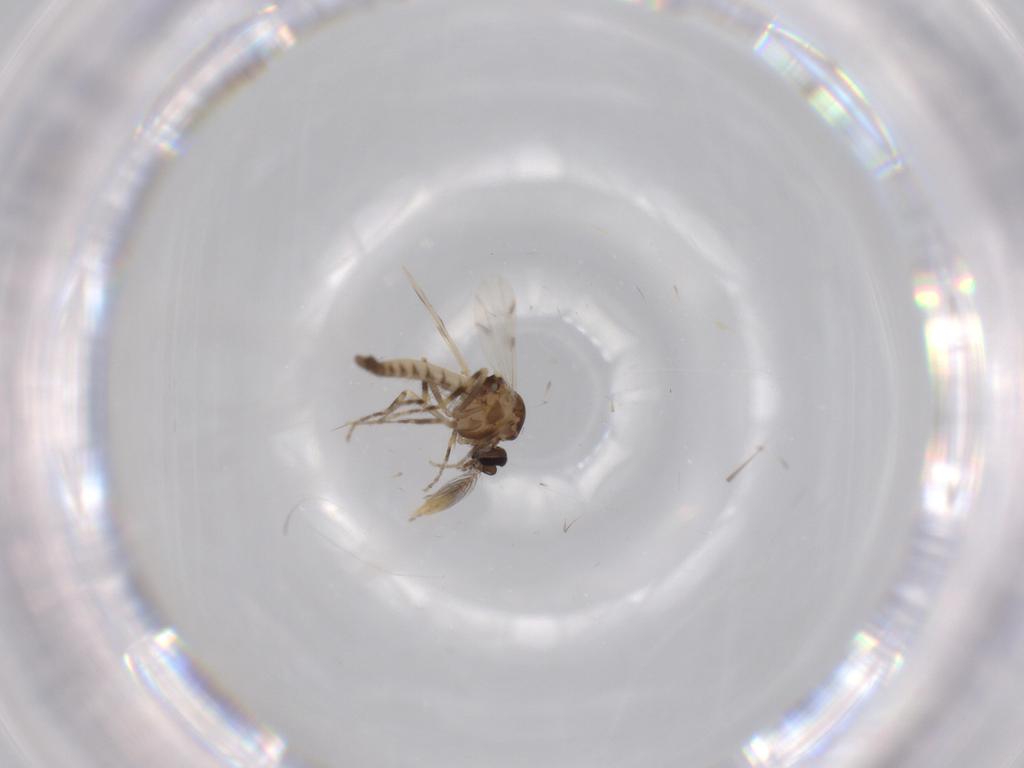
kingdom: Animalia
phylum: Arthropoda
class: Insecta
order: Diptera
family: Ceratopogonidae
